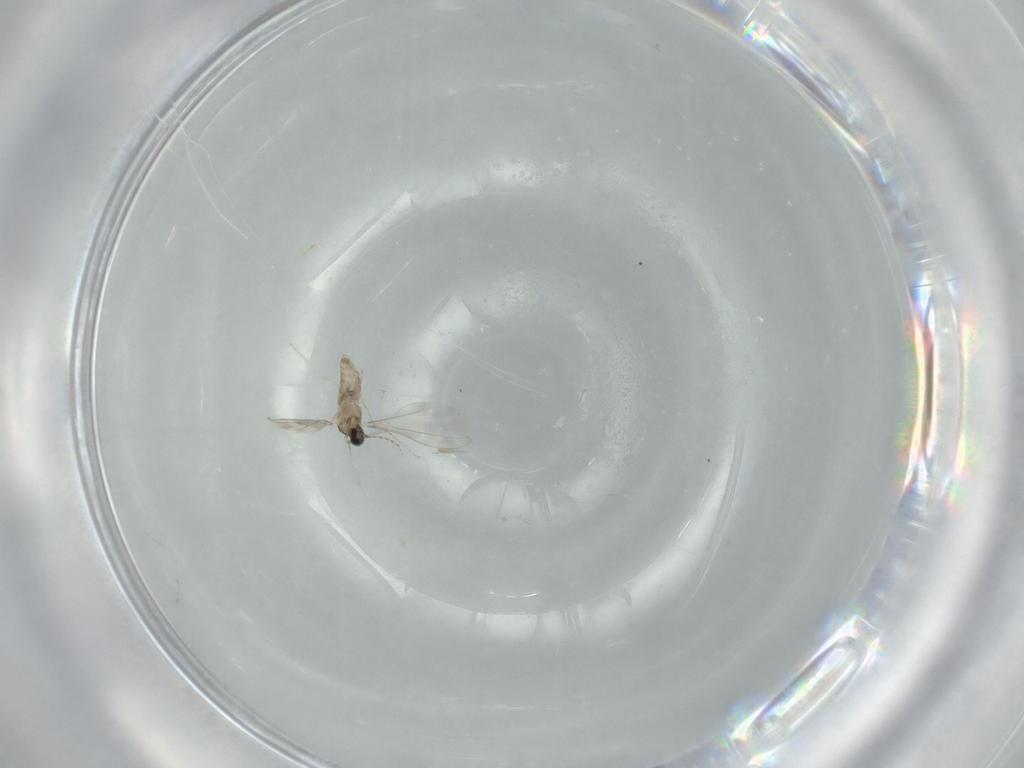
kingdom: Animalia
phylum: Arthropoda
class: Insecta
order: Diptera
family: Cecidomyiidae
